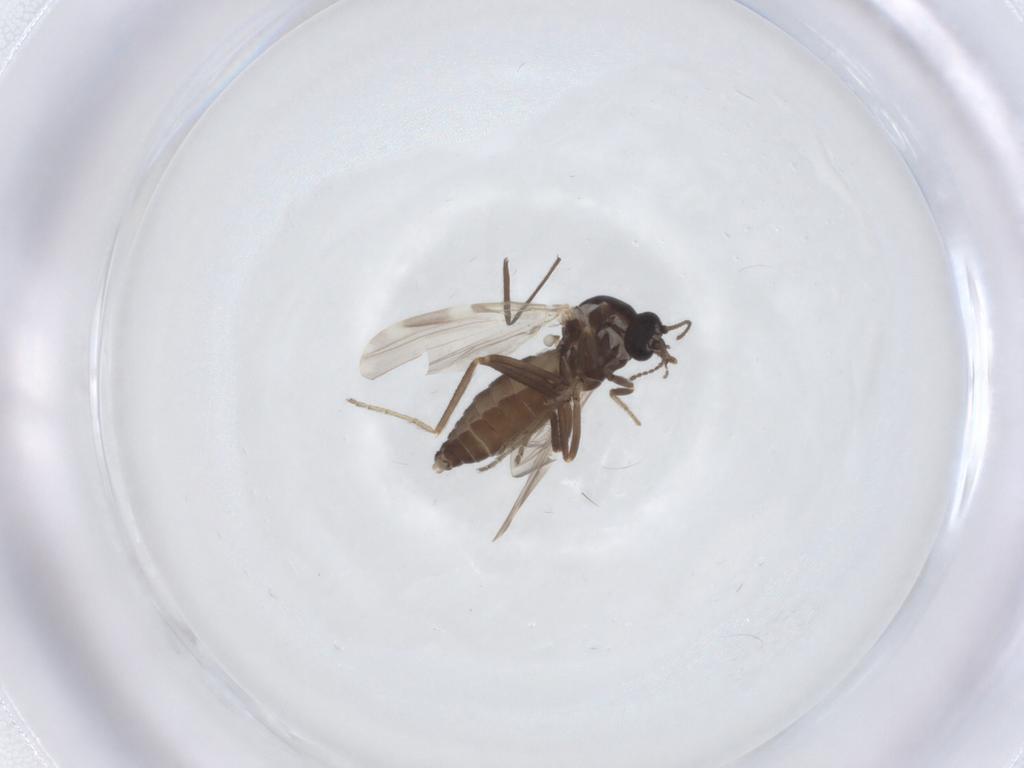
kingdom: Animalia
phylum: Arthropoda
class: Insecta
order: Diptera
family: Ceratopogonidae
